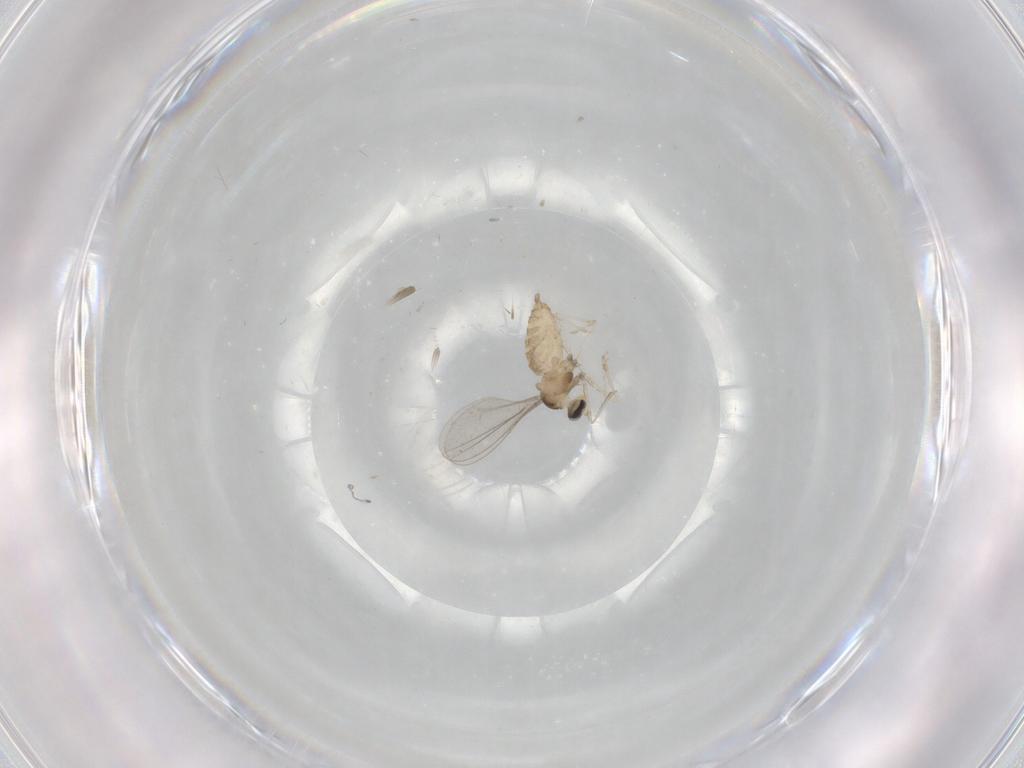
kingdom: Animalia
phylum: Arthropoda
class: Insecta
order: Diptera
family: Cecidomyiidae
